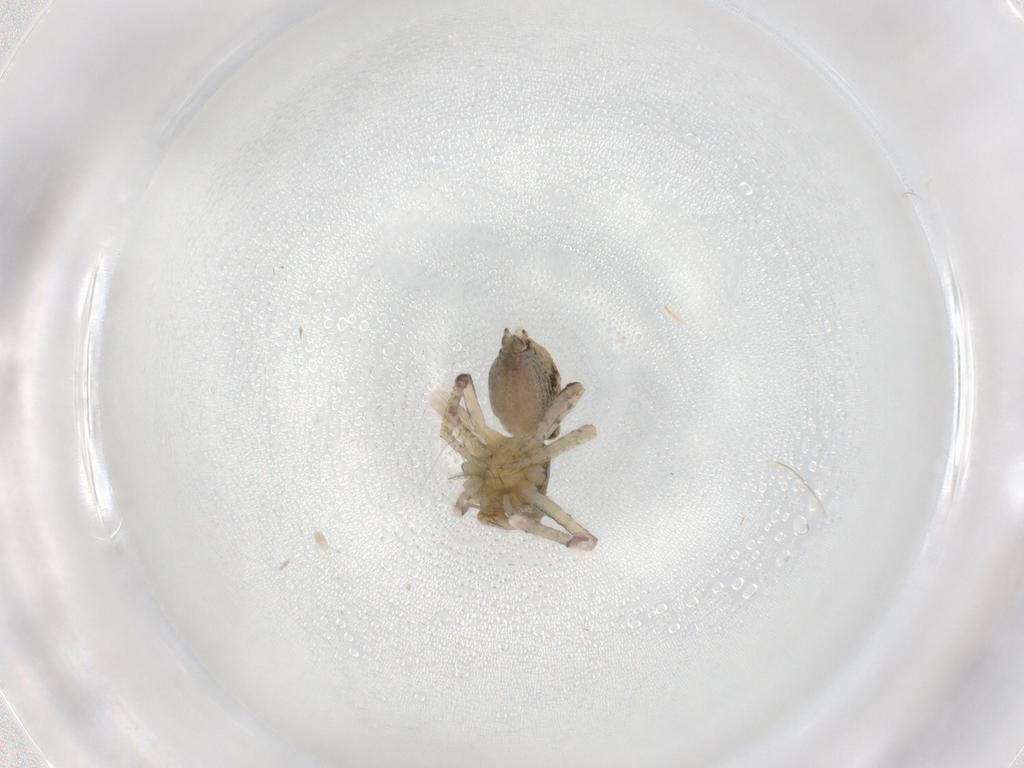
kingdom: Animalia
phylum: Arthropoda
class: Arachnida
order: Araneae
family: Thomisidae
